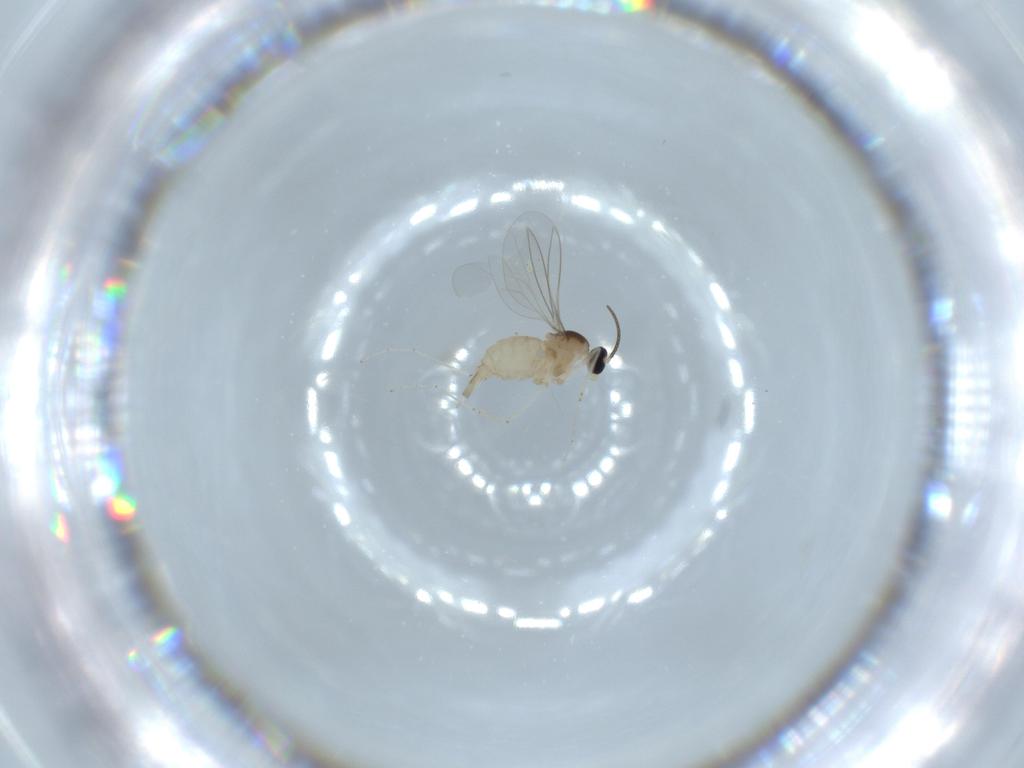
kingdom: Animalia
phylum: Arthropoda
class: Insecta
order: Diptera
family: Cecidomyiidae
